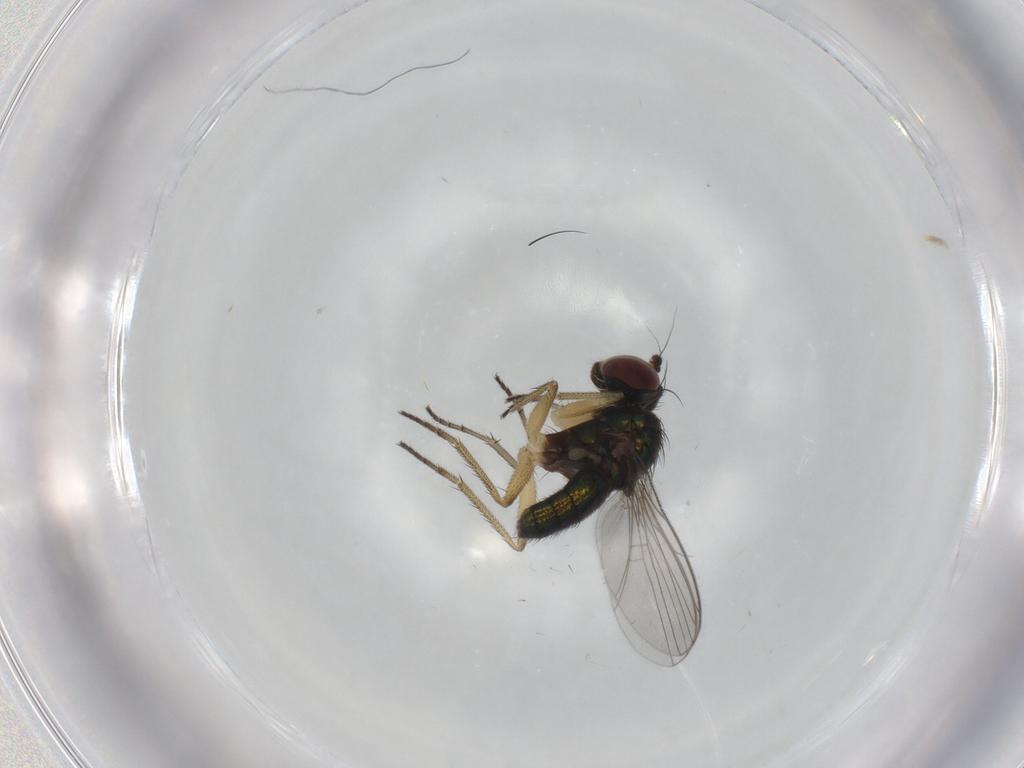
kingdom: Animalia
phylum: Arthropoda
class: Insecta
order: Diptera
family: Dolichopodidae
